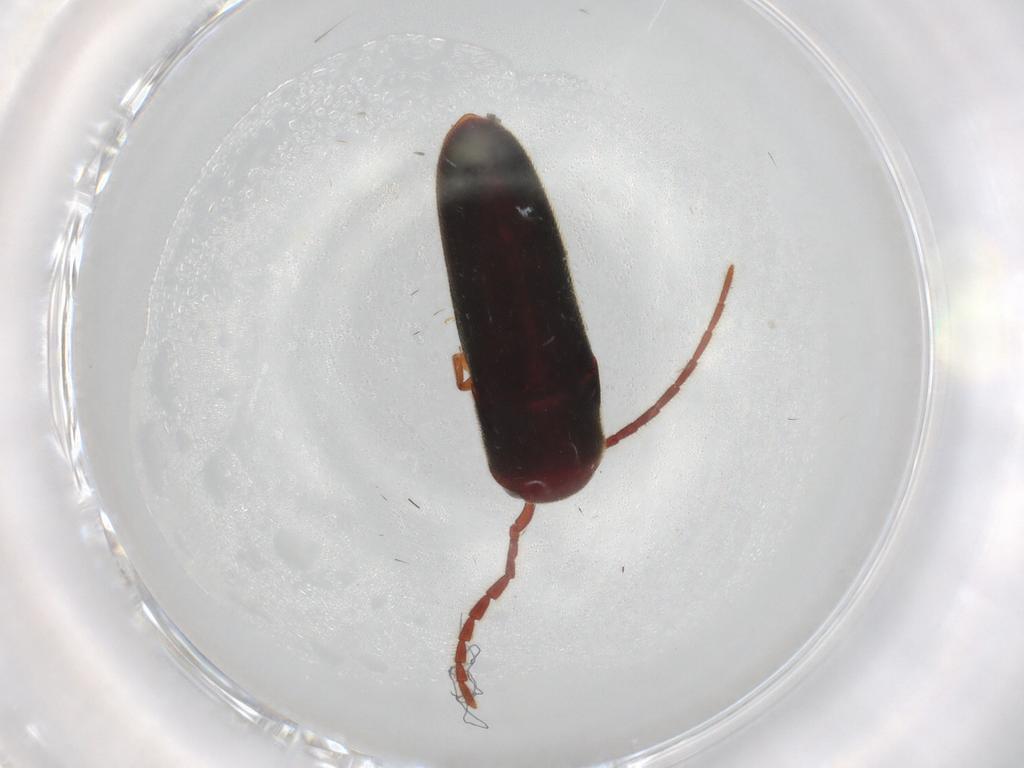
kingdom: Animalia
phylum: Arthropoda
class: Insecta
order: Coleoptera
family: Eucnemidae
